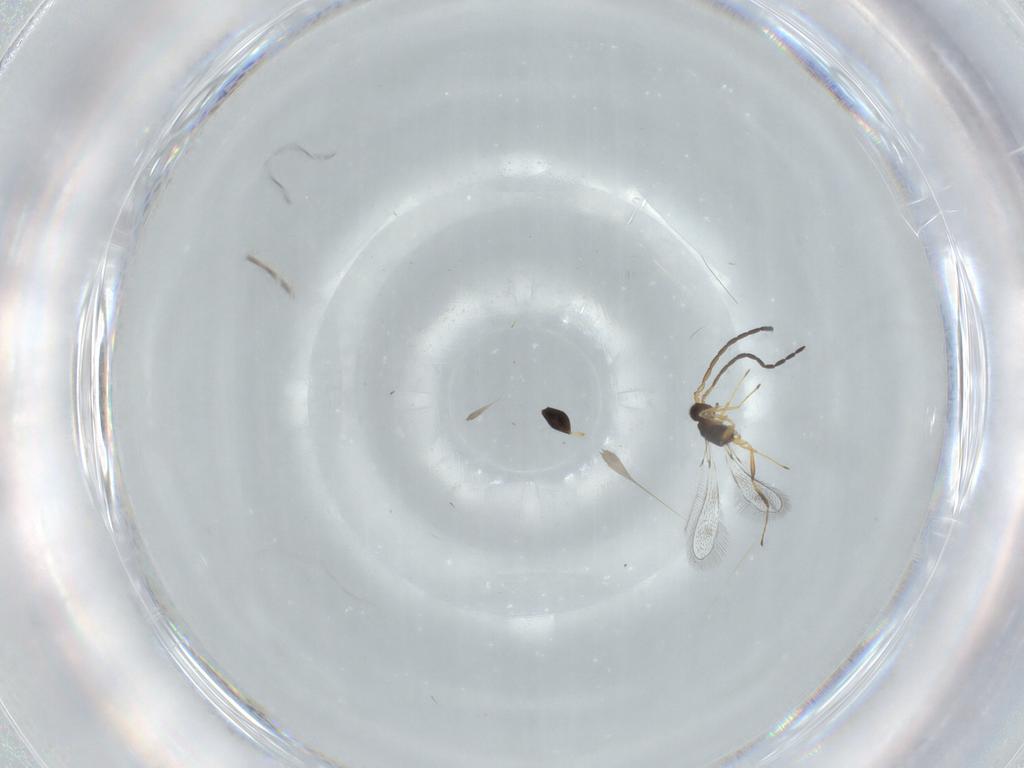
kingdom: Animalia
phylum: Arthropoda
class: Insecta
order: Hymenoptera
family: Mymaridae
